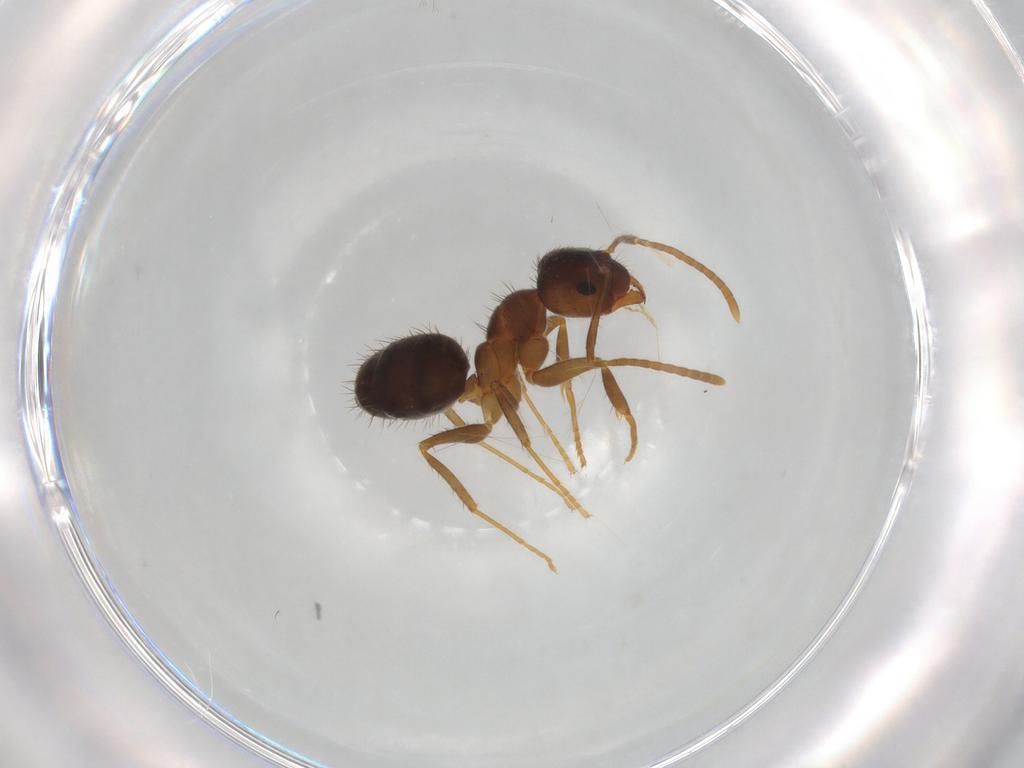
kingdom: Animalia
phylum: Arthropoda
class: Insecta
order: Hymenoptera
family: Formicidae
